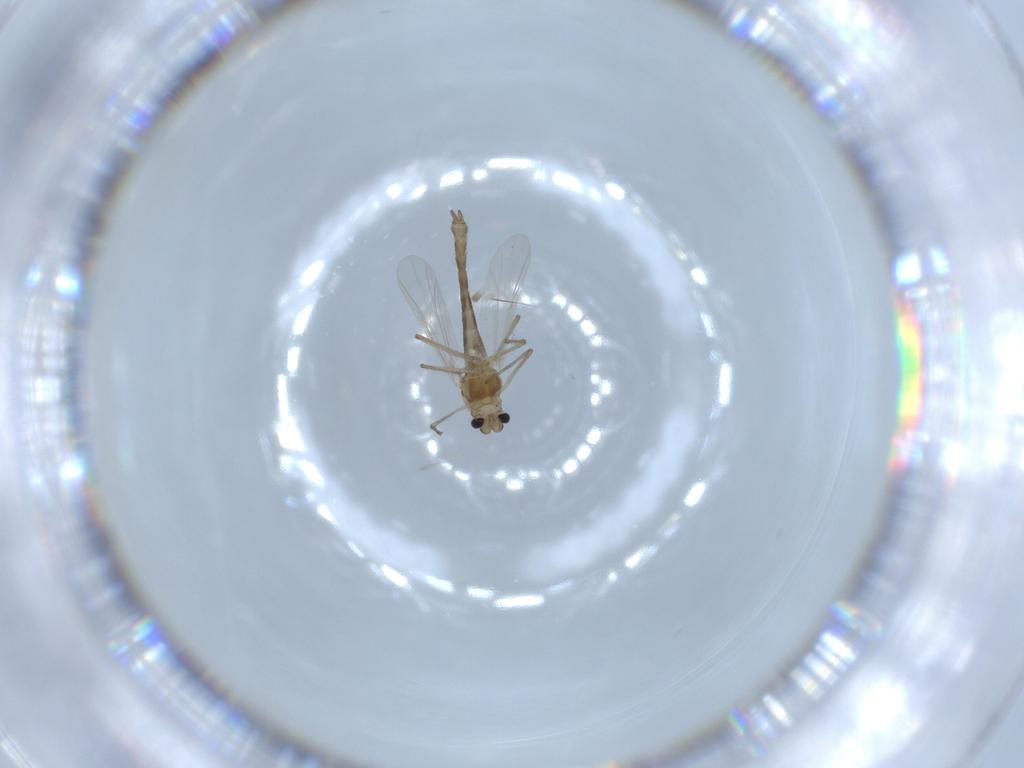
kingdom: Animalia
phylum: Arthropoda
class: Insecta
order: Diptera
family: Chironomidae
